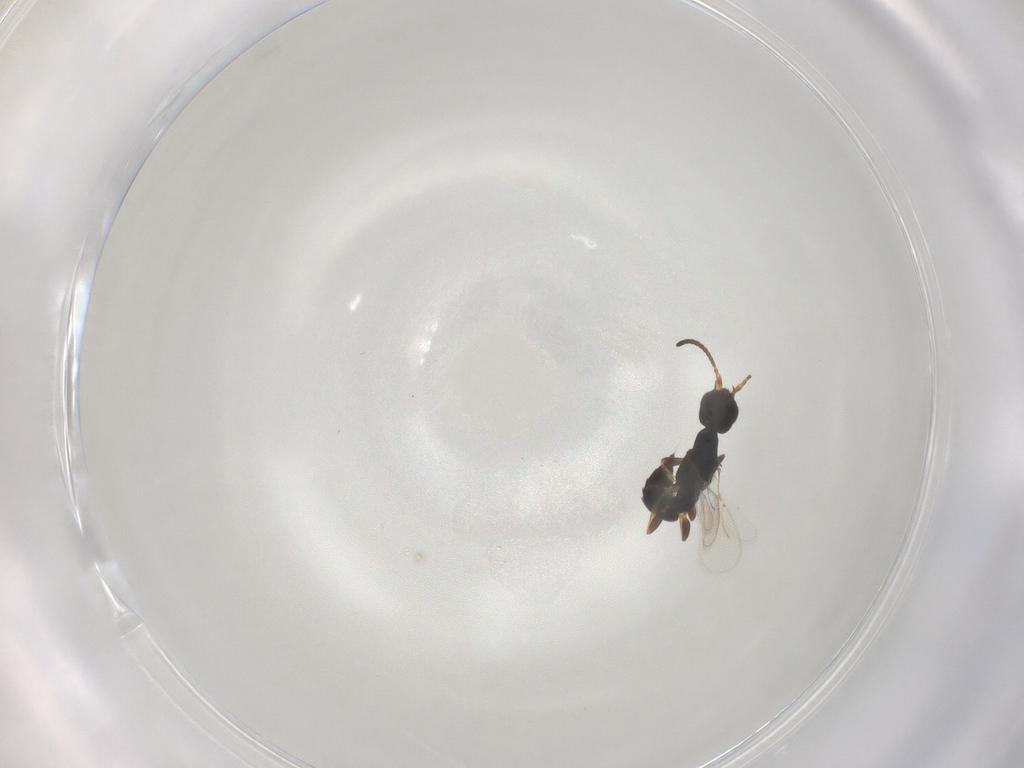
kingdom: Animalia
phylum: Arthropoda
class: Insecta
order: Hymenoptera
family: Bethylidae
